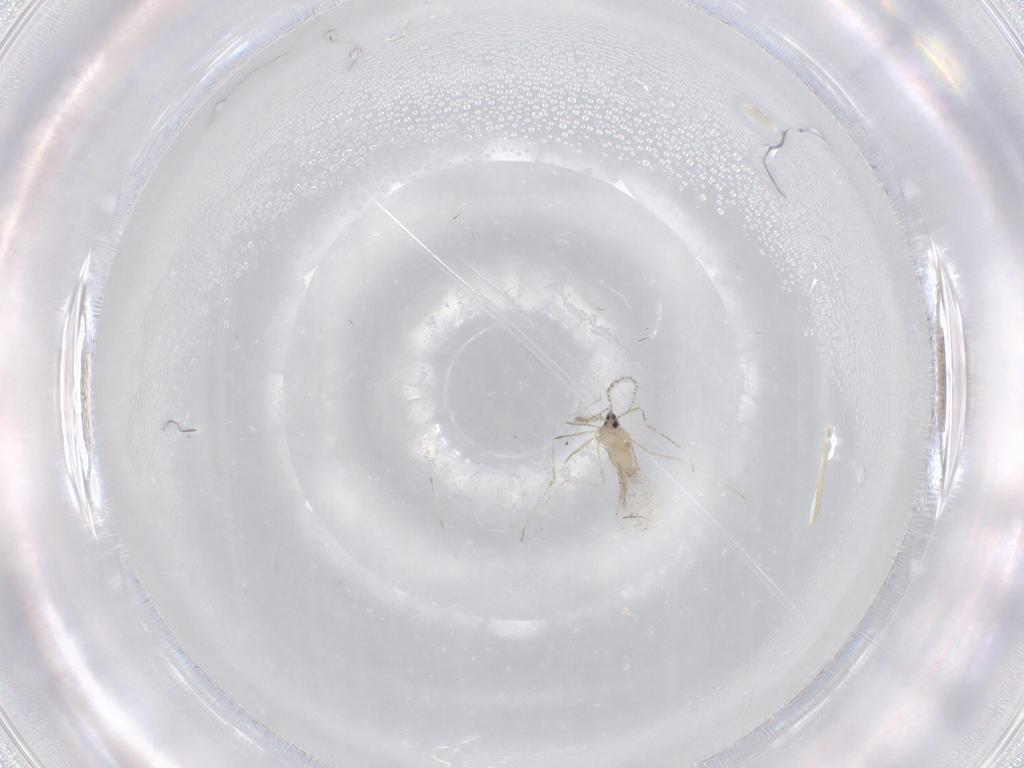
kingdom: Animalia
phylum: Arthropoda
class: Insecta
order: Diptera
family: Cecidomyiidae
